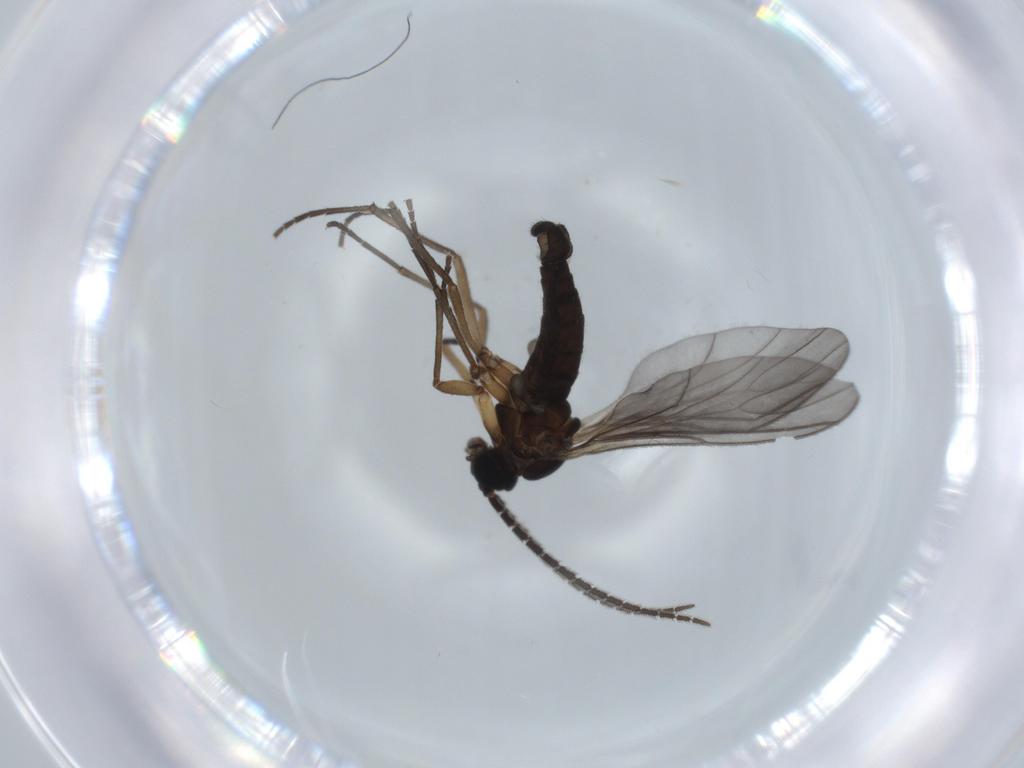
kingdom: Animalia
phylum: Arthropoda
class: Insecta
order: Diptera
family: Sciaridae
